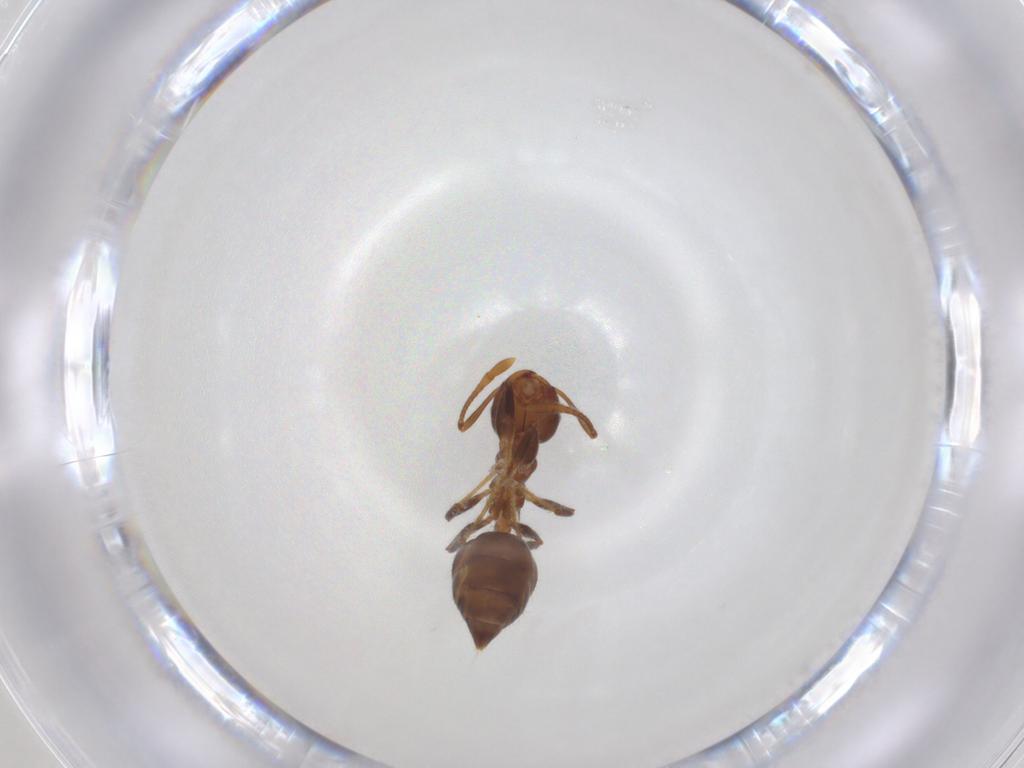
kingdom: Animalia
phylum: Arthropoda
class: Insecta
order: Hymenoptera
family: Formicidae
